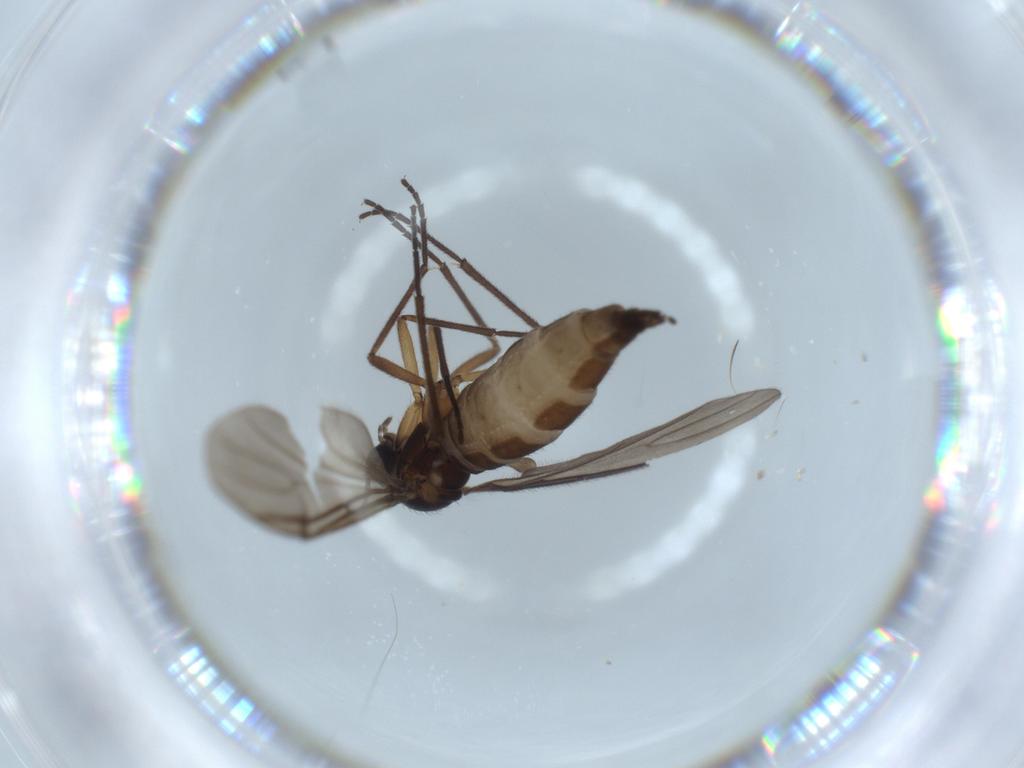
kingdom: Animalia
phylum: Arthropoda
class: Insecta
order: Diptera
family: Sciaridae
